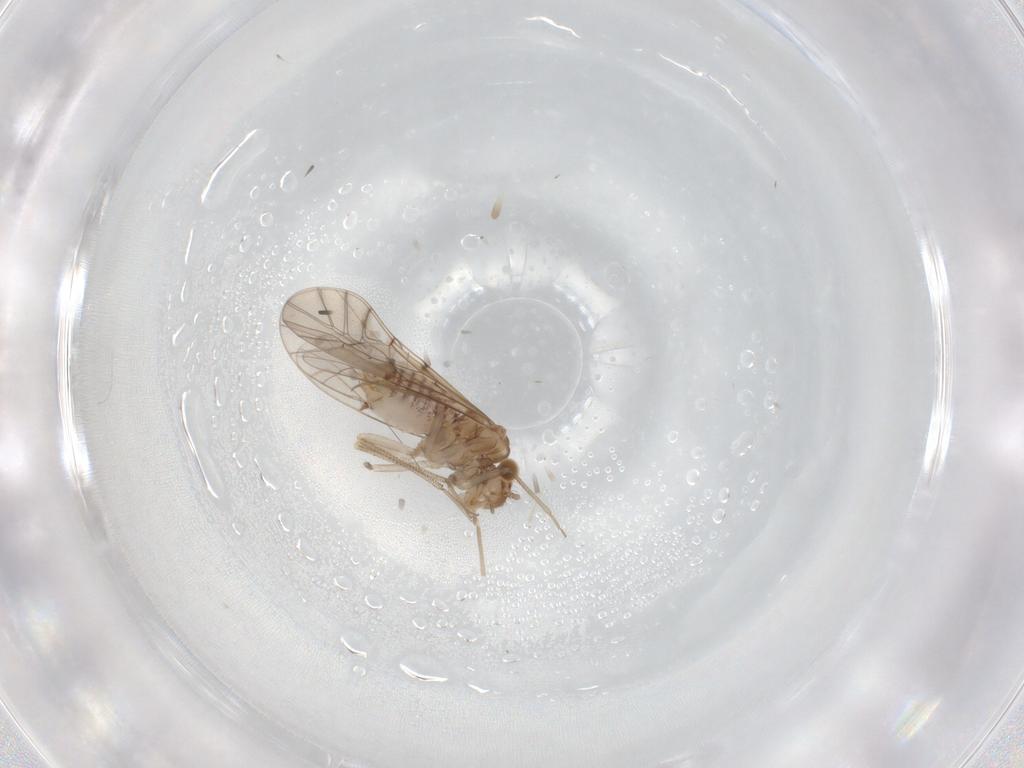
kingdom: Animalia
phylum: Arthropoda
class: Insecta
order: Psocodea
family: Lachesillidae
